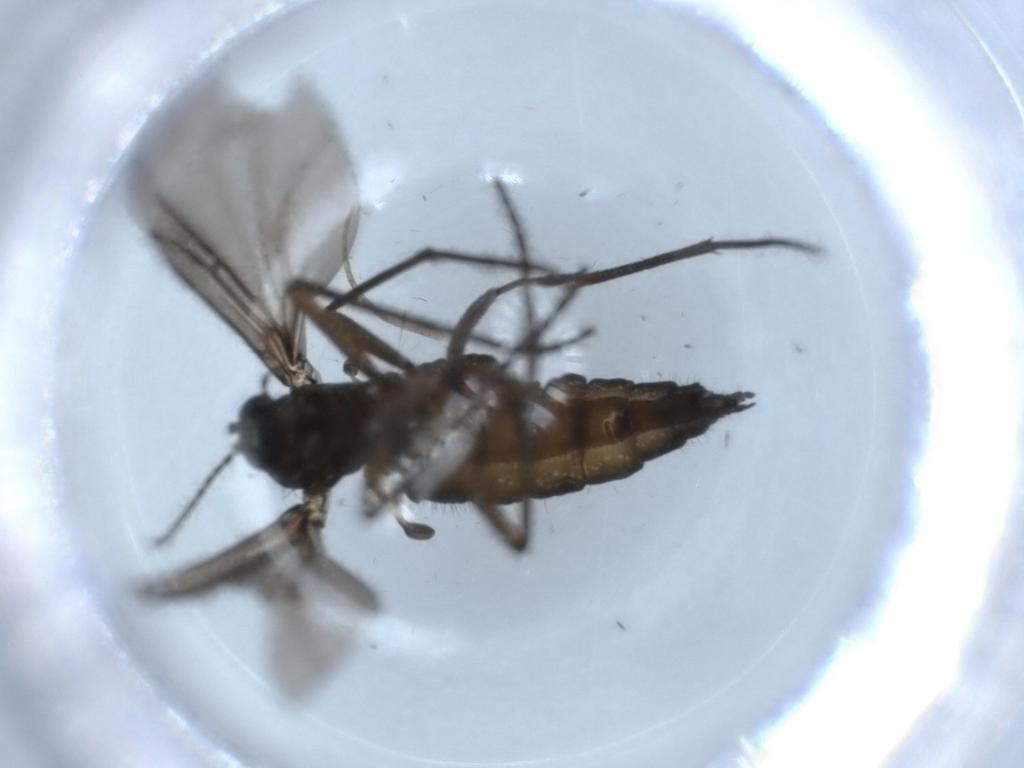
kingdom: Animalia
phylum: Arthropoda
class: Insecta
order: Diptera
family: Sciaridae
